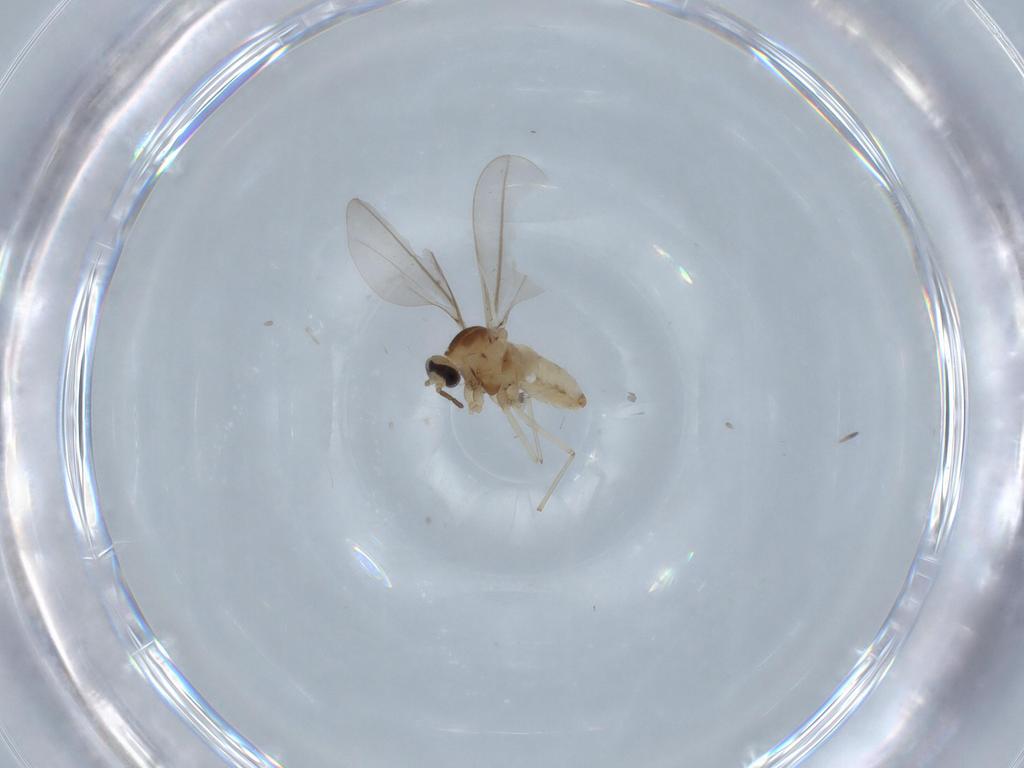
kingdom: Animalia
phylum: Arthropoda
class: Insecta
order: Diptera
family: Cecidomyiidae
